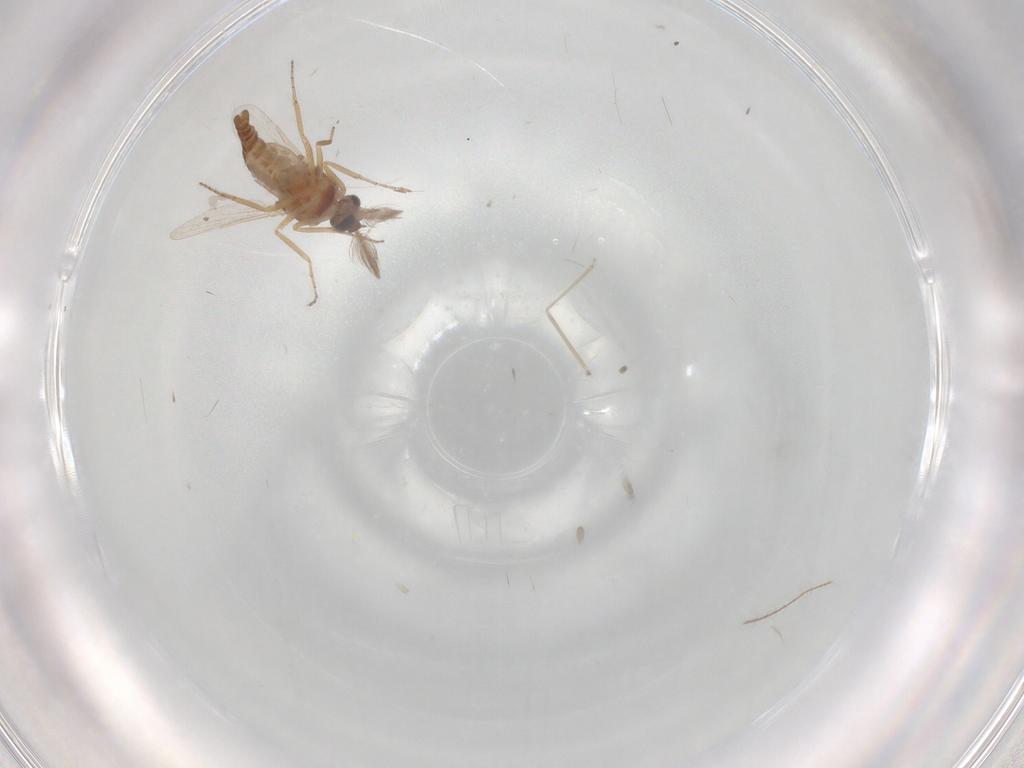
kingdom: Animalia
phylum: Arthropoda
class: Insecta
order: Diptera
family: Ceratopogonidae
